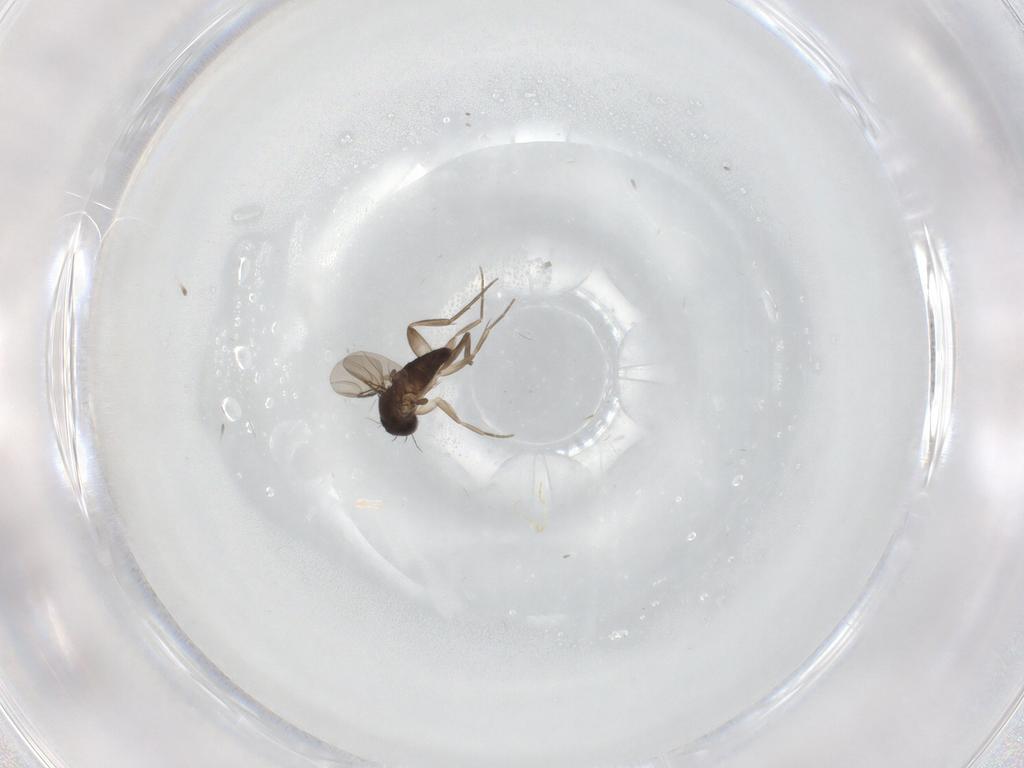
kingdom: Animalia
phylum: Arthropoda
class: Insecta
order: Diptera
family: Phoridae
